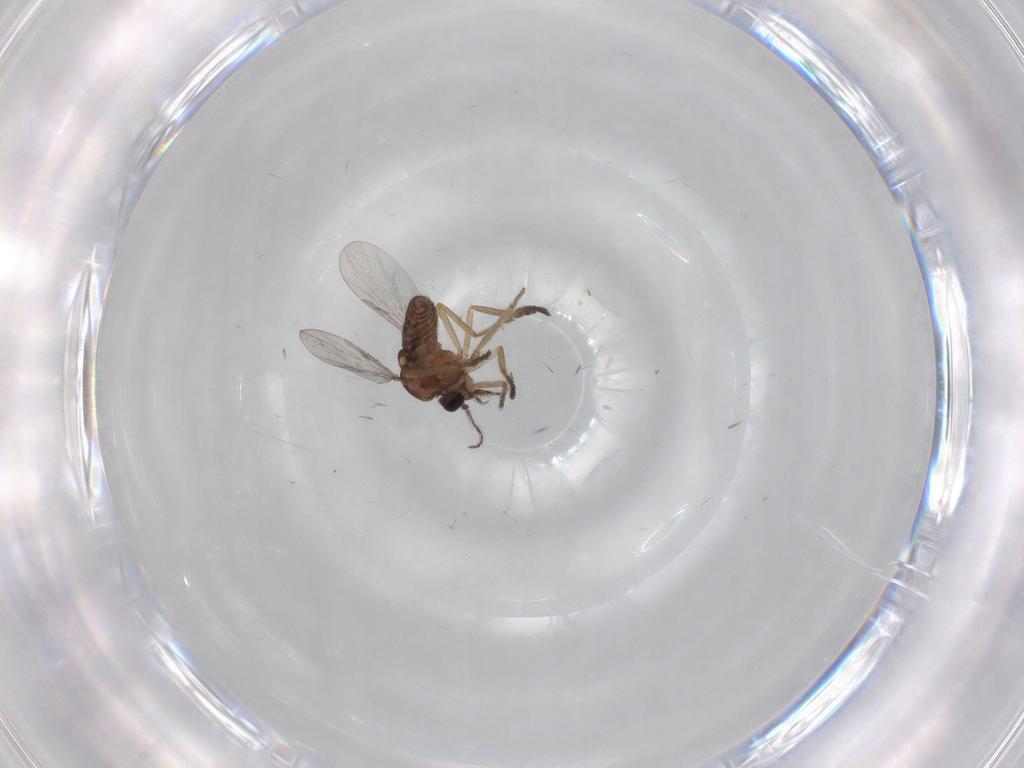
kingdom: Animalia
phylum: Arthropoda
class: Insecta
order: Diptera
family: Ceratopogonidae
